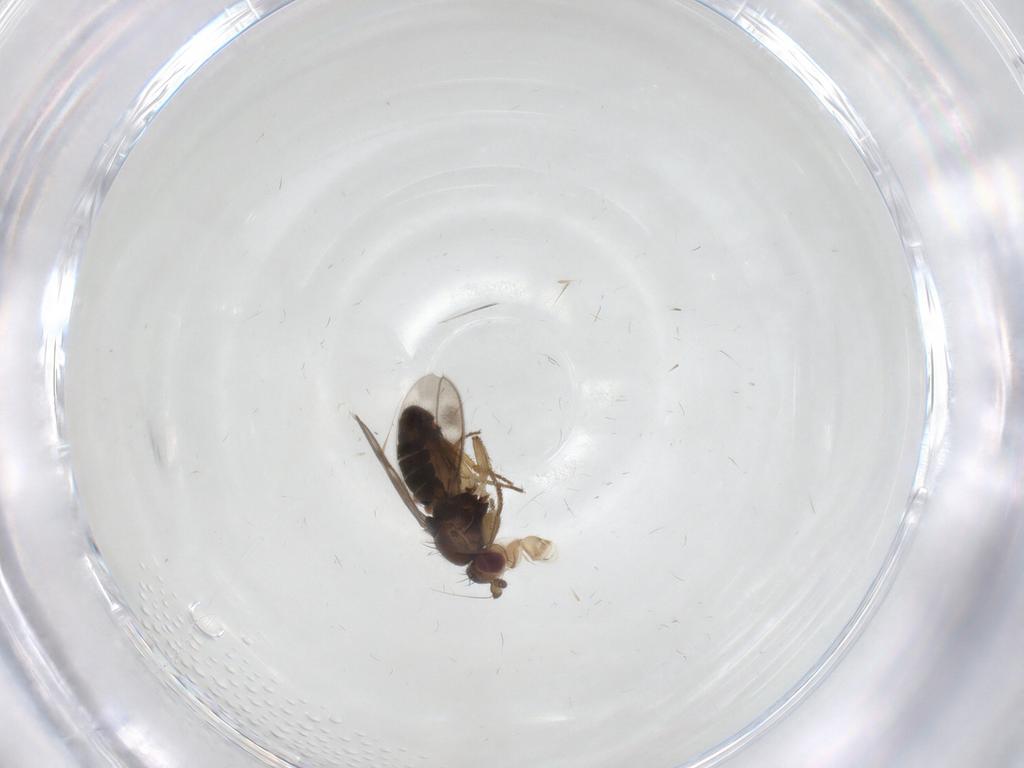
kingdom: Animalia
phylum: Arthropoda
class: Insecta
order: Diptera
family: Sphaeroceridae
